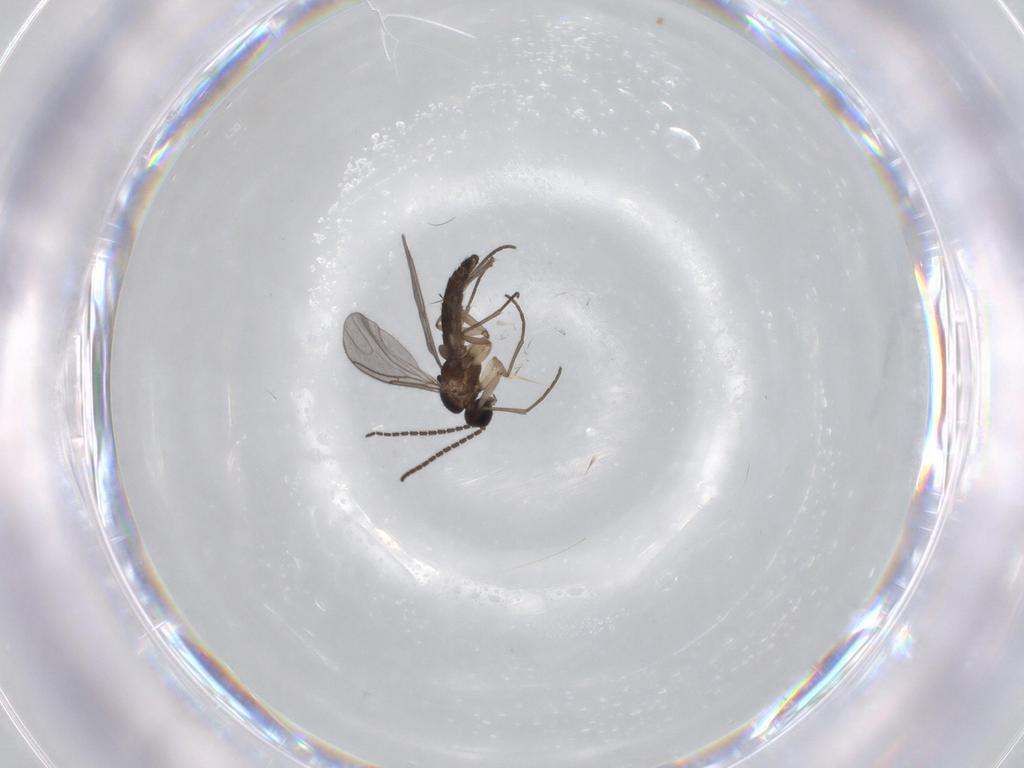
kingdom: Animalia
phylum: Arthropoda
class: Insecta
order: Diptera
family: Sciaridae
